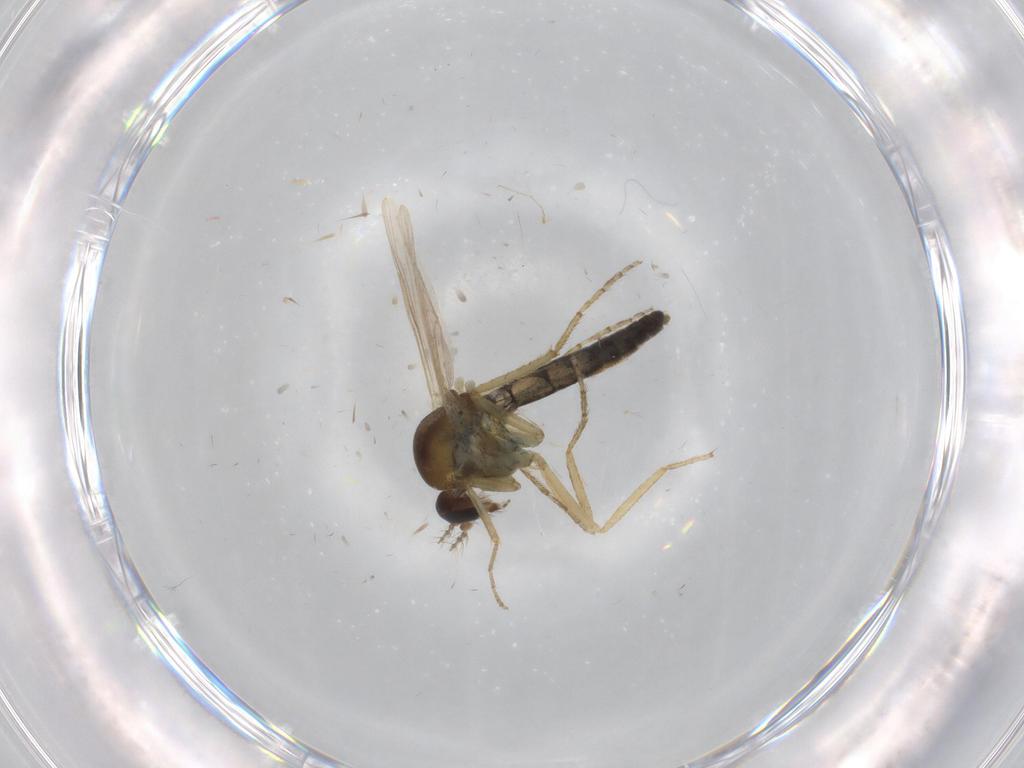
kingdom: Animalia
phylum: Arthropoda
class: Insecta
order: Diptera
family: Ceratopogonidae
